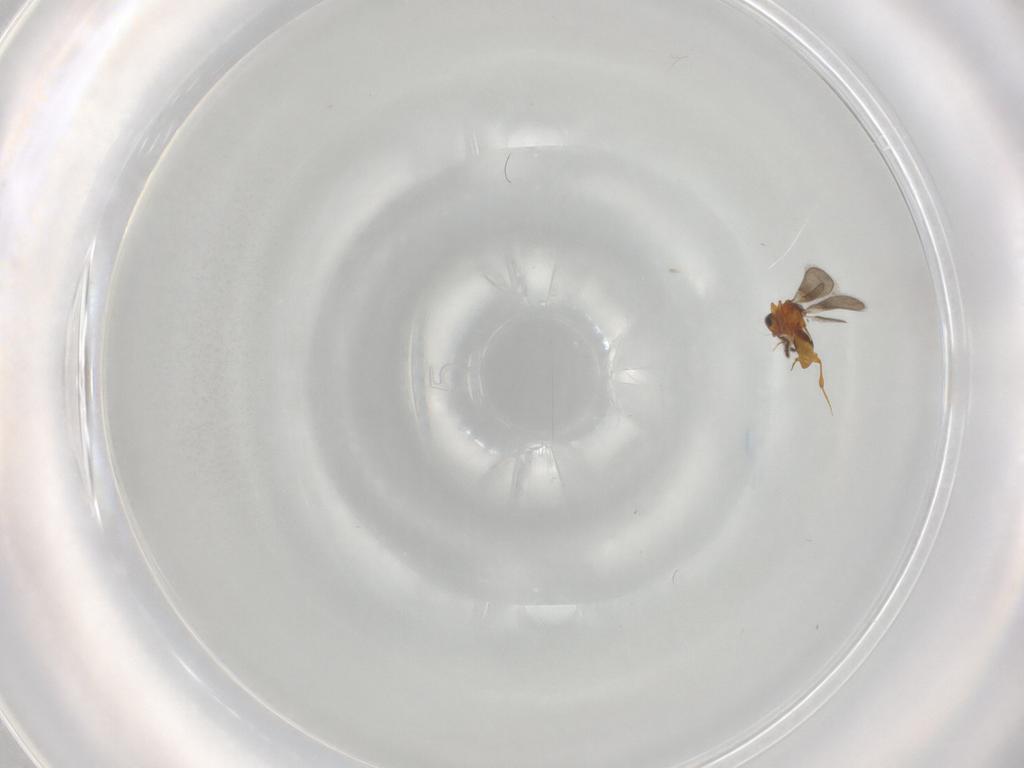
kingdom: Animalia
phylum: Arthropoda
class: Insecta
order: Hymenoptera
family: Platygastridae
